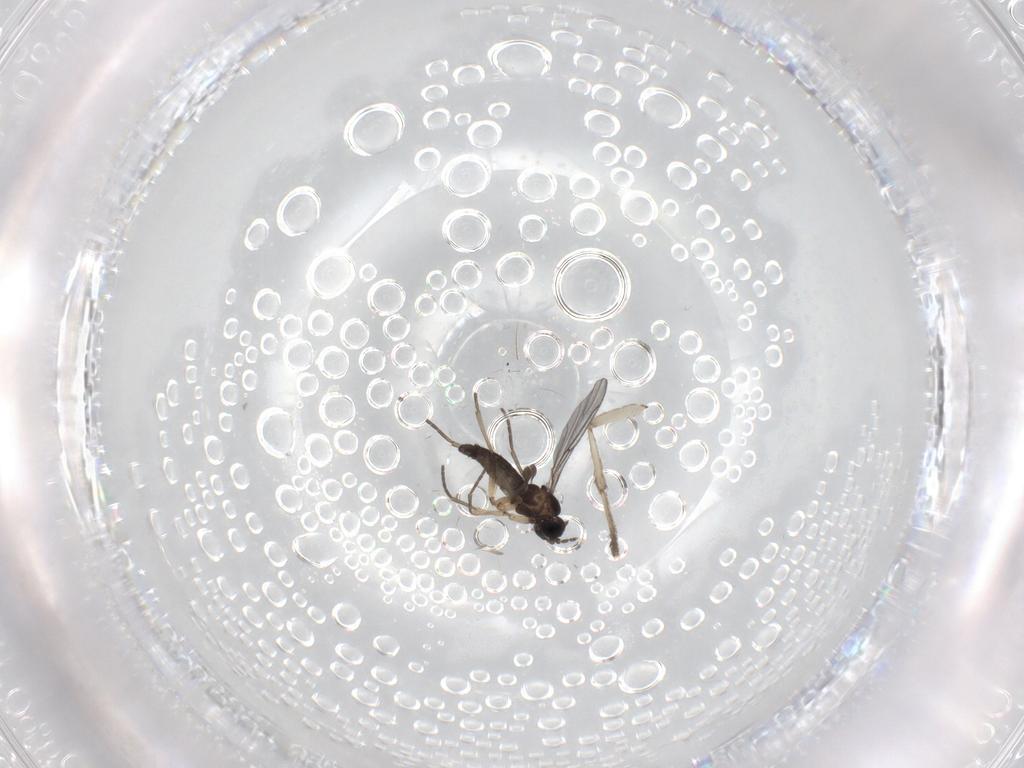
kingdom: Animalia
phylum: Arthropoda
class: Insecta
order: Diptera
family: Psychodidae
